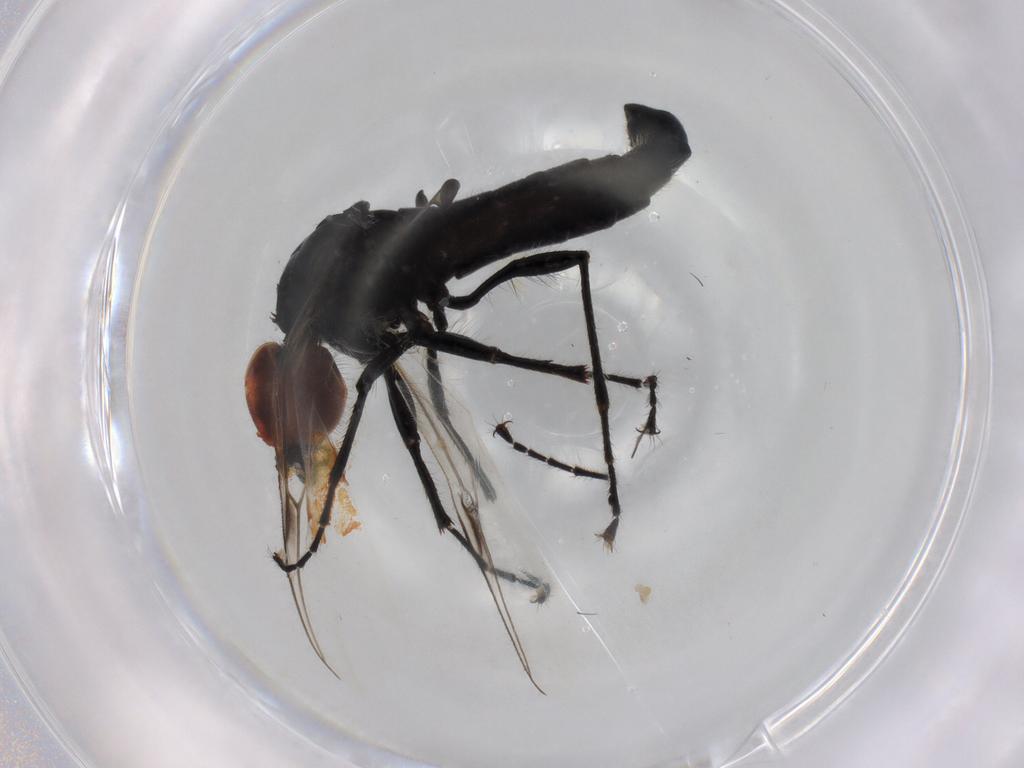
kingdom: Animalia
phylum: Arthropoda
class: Insecta
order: Diptera
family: Bibionidae
